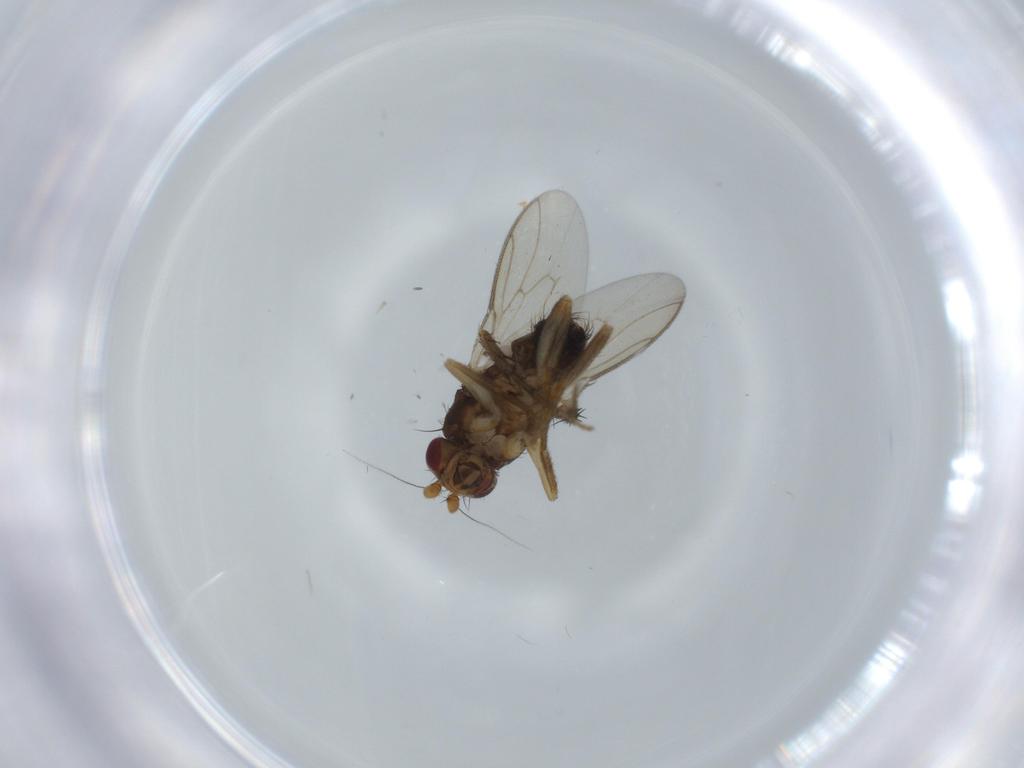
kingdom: Animalia
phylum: Arthropoda
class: Insecta
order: Diptera
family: Sphaeroceridae
